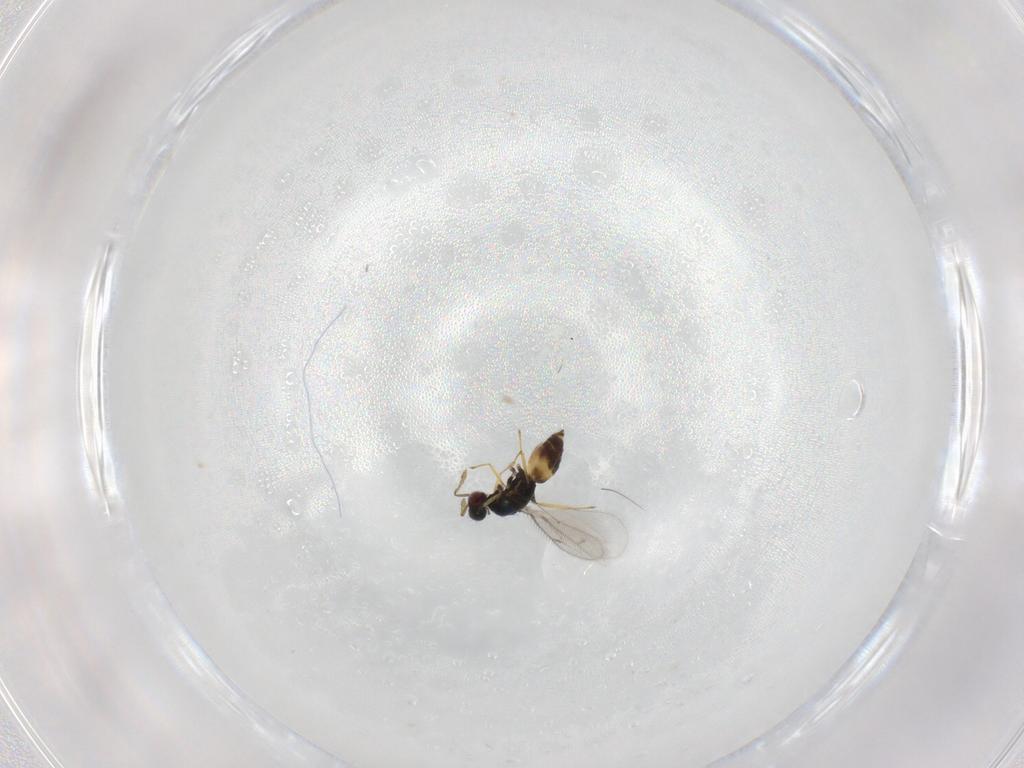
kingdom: Animalia
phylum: Arthropoda
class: Insecta
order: Hymenoptera
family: Eulophidae
